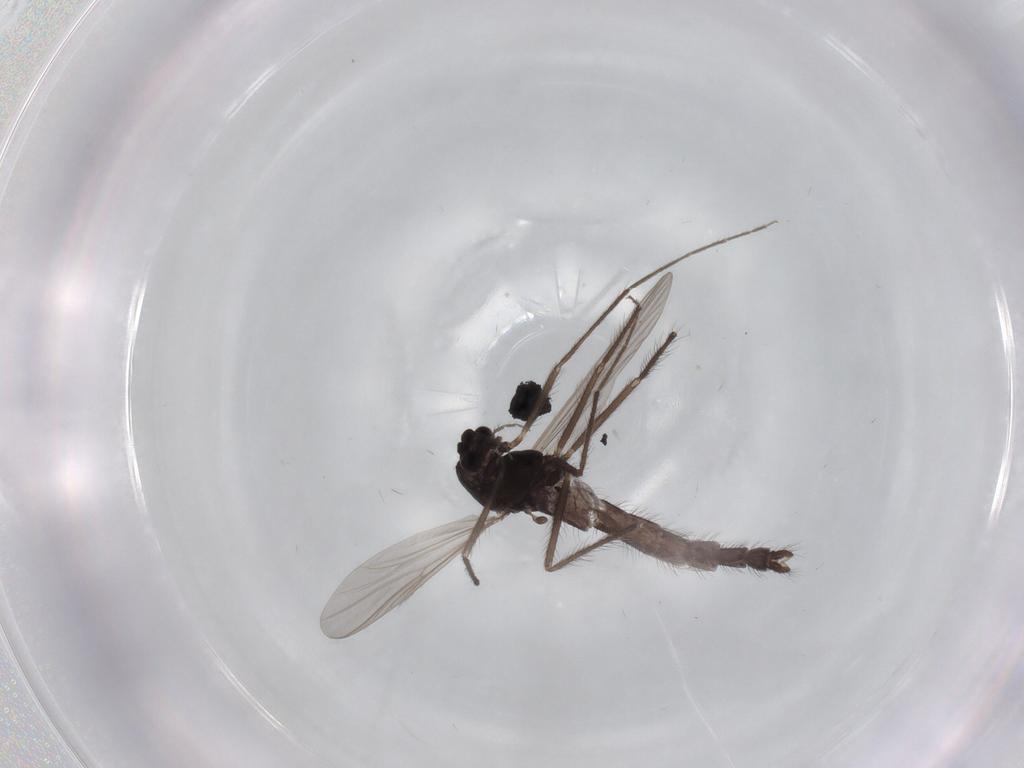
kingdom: Animalia
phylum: Arthropoda
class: Insecta
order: Diptera
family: Chironomidae
